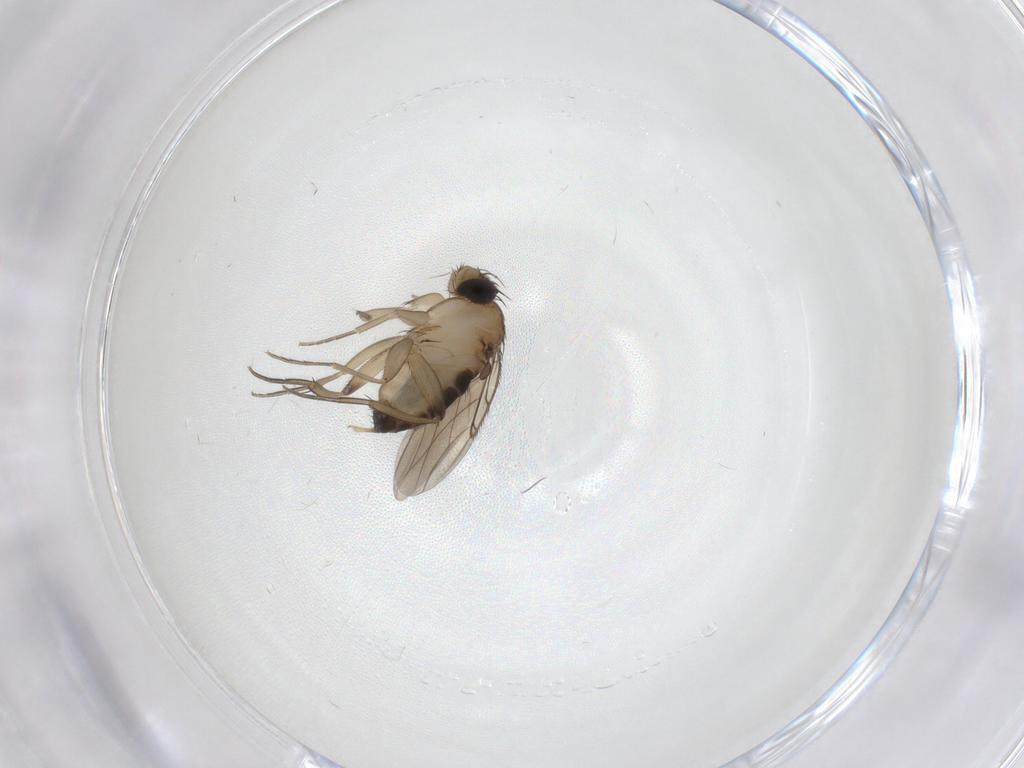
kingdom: Animalia
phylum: Arthropoda
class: Insecta
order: Diptera
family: Phoridae
